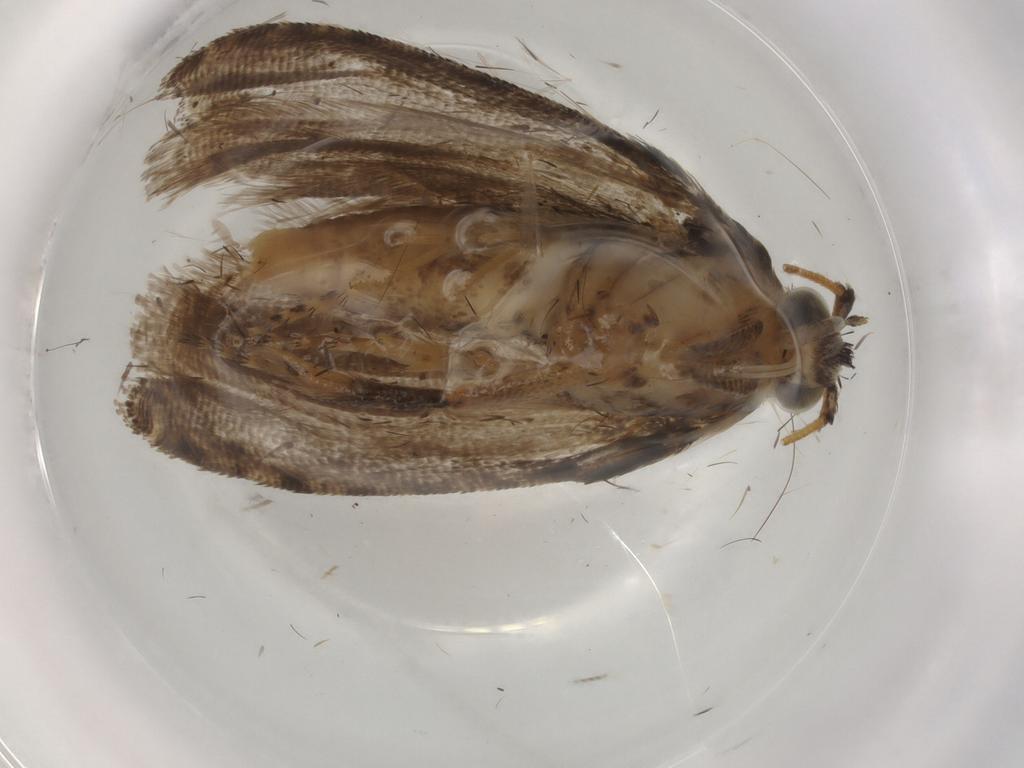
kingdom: Animalia
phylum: Arthropoda
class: Insecta
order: Lepidoptera
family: Tortricidae
